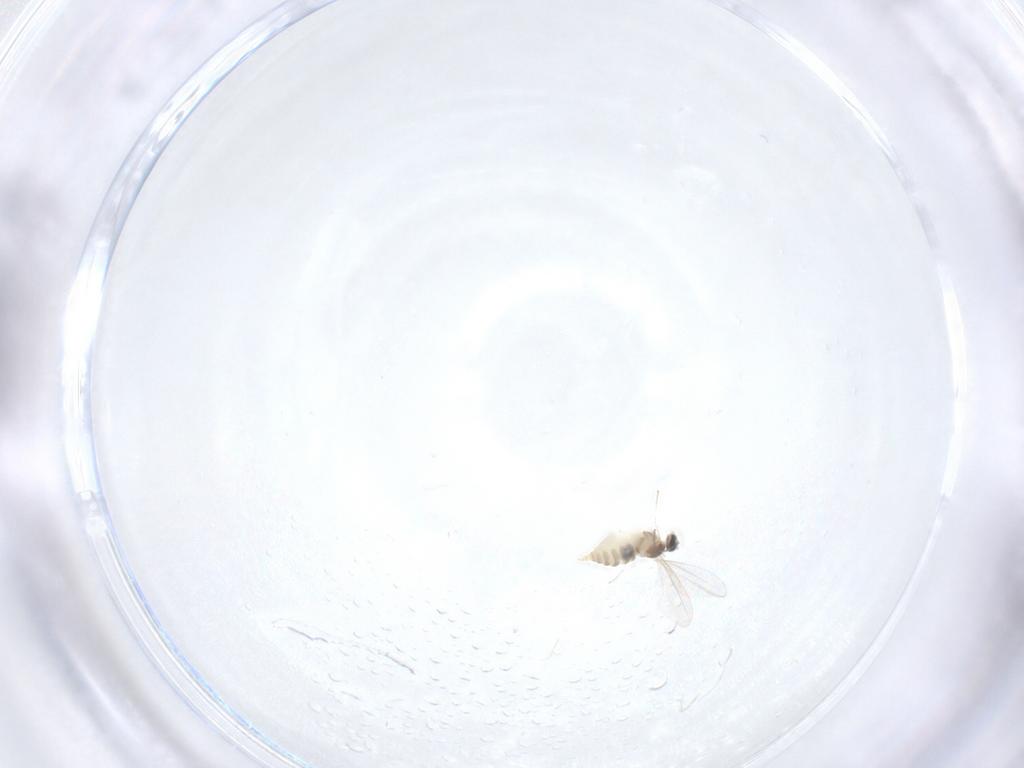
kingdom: Animalia
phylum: Arthropoda
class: Insecta
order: Diptera
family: Cecidomyiidae
